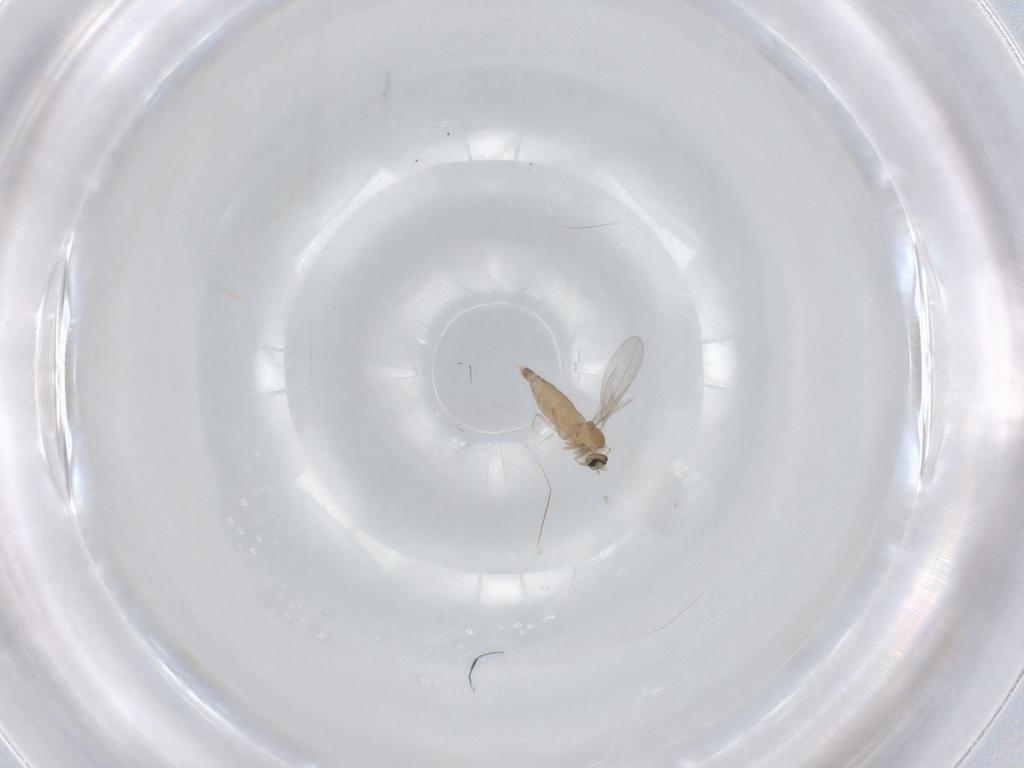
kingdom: Animalia
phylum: Arthropoda
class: Insecta
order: Diptera
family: Cecidomyiidae
